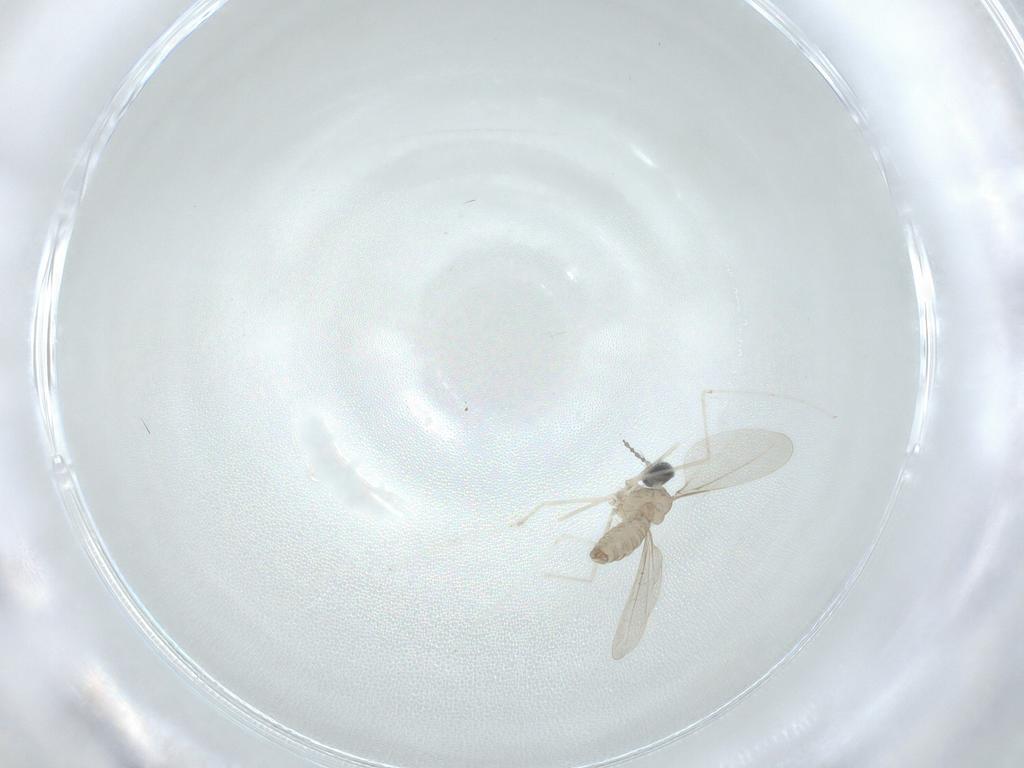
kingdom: Animalia
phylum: Arthropoda
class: Insecta
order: Diptera
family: Cecidomyiidae
